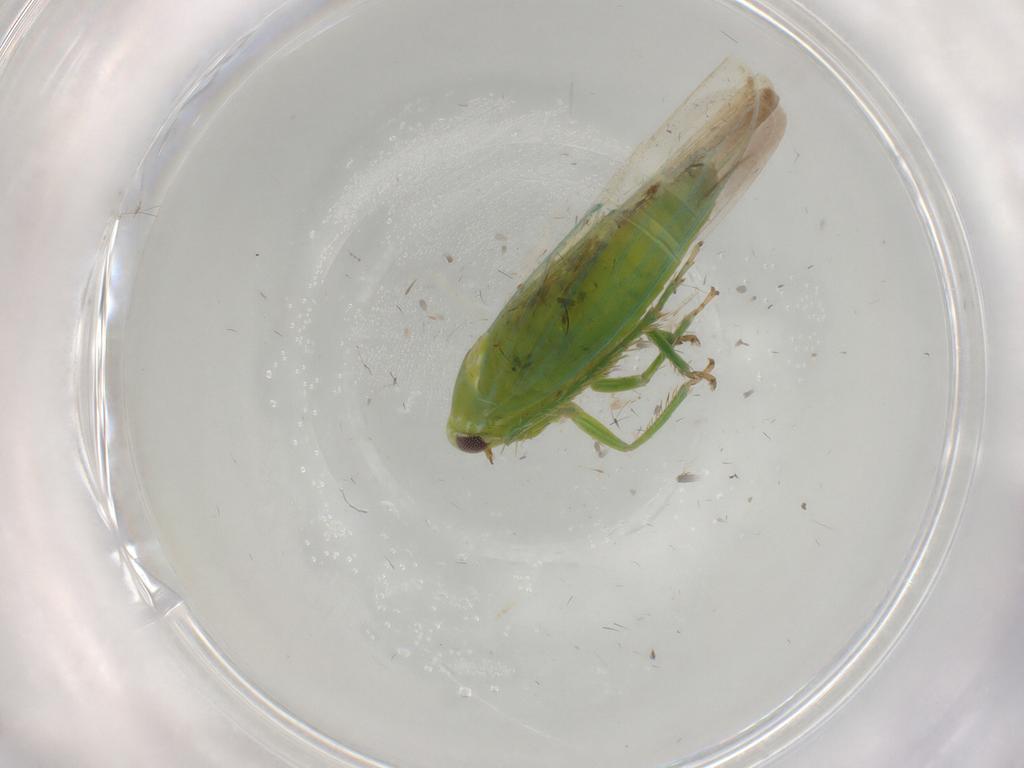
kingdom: Animalia
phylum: Arthropoda
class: Insecta
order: Hemiptera
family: Cicadellidae
